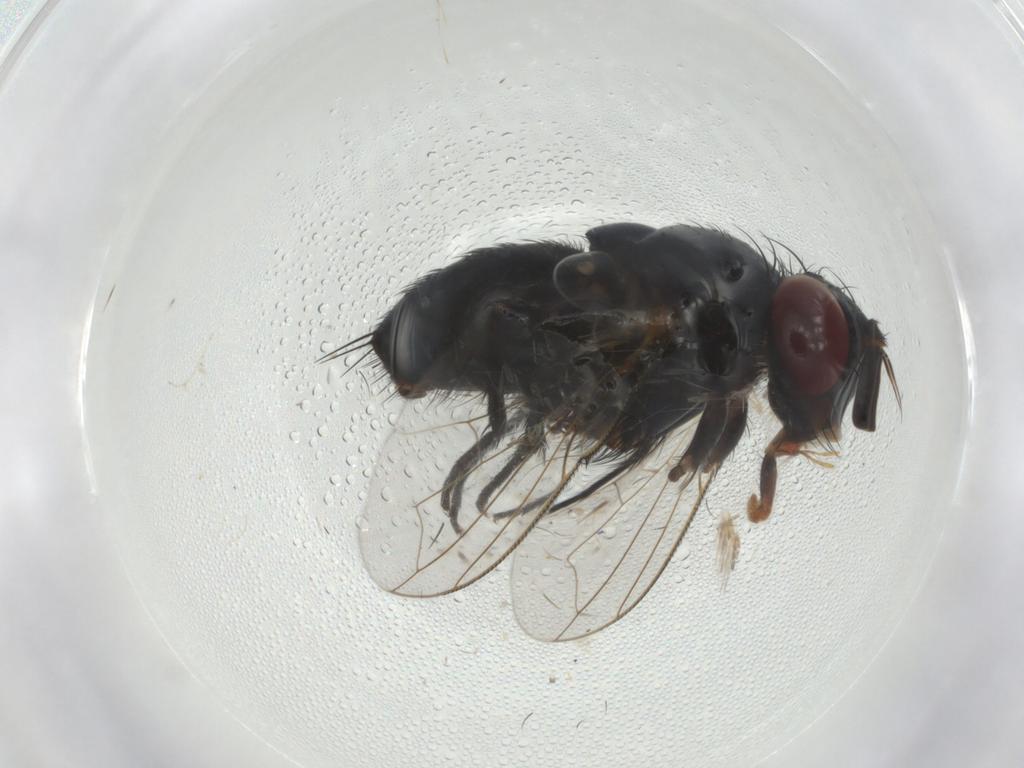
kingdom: Animalia
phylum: Arthropoda
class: Insecta
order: Diptera
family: Tachinidae
